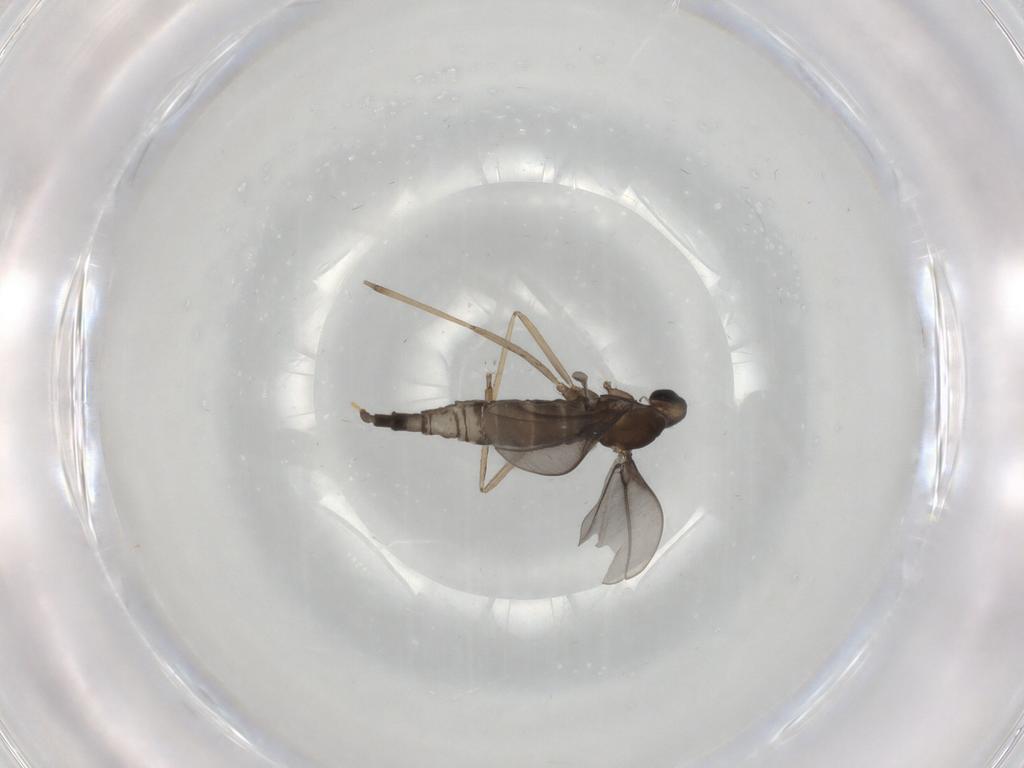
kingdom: Animalia
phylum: Arthropoda
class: Insecta
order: Diptera
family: Cecidomyiidae
